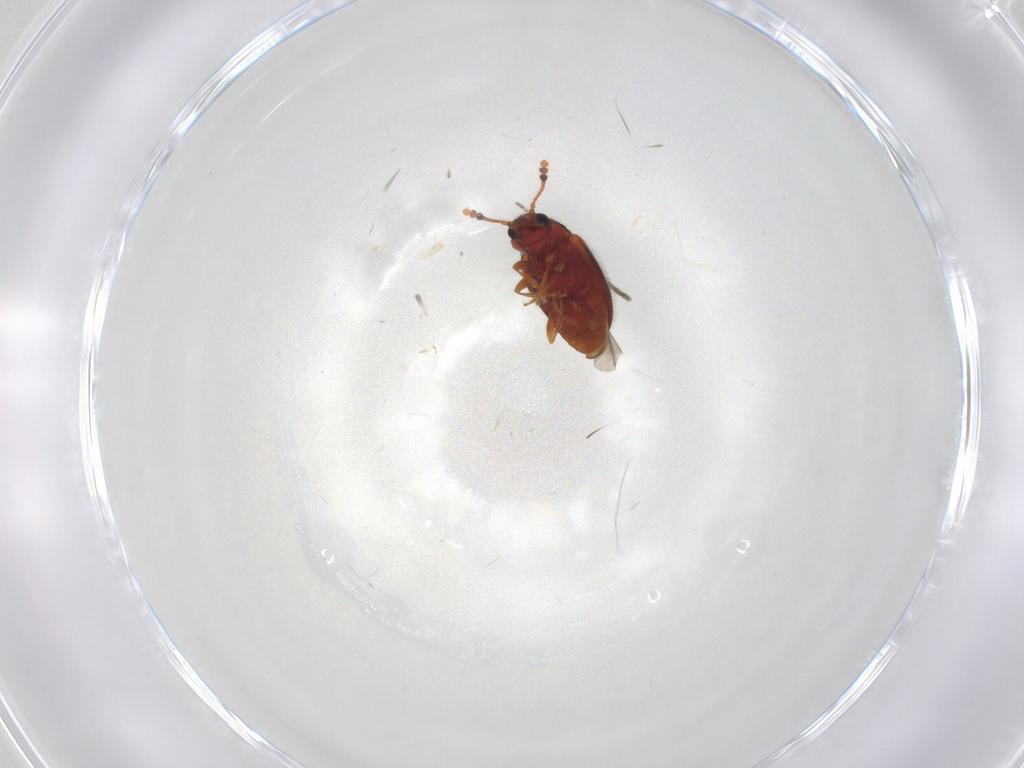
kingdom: Animalia
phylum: Arthropoda
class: Insecta
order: Coleoptera
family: Erotylidae
